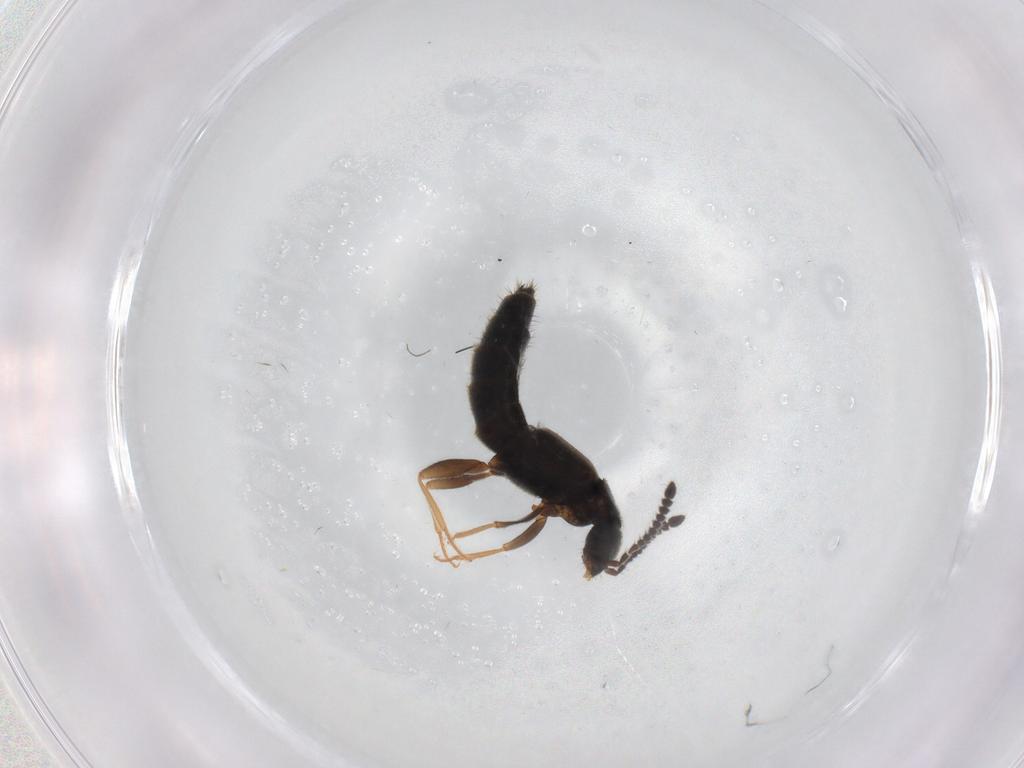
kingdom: Animalia
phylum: Arthropoda
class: Insecta
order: Coleoptera
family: Staphylinidae
